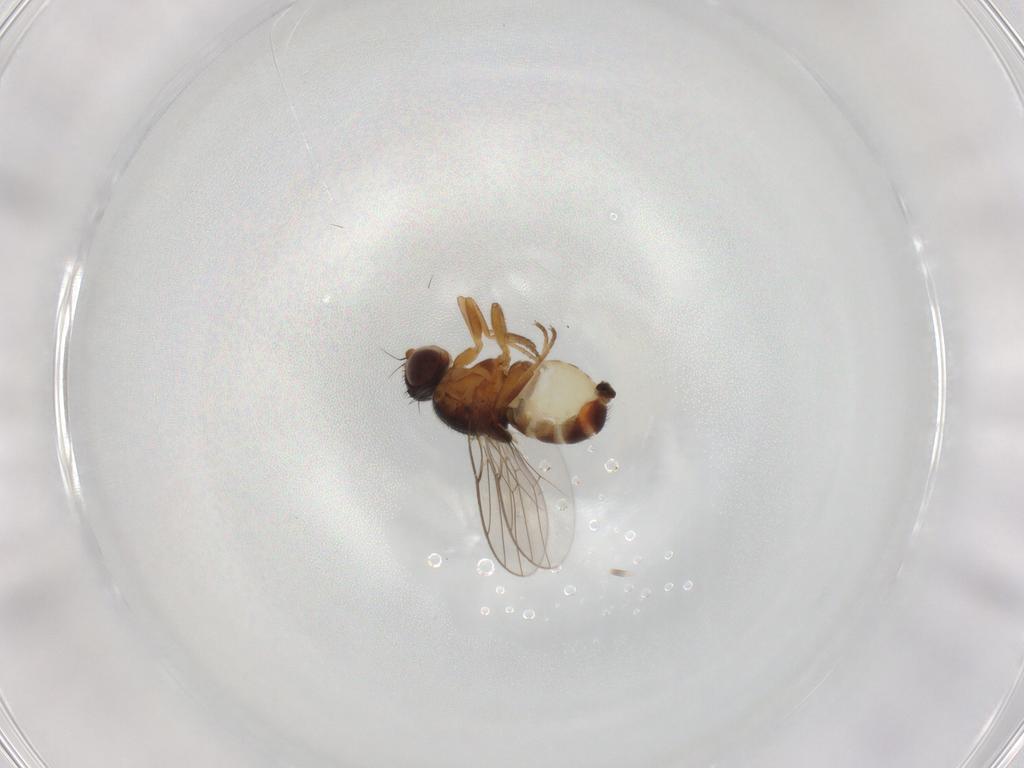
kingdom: Animalia
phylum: Arthropoda
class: Insecta
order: Diptera
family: Chloropidae
